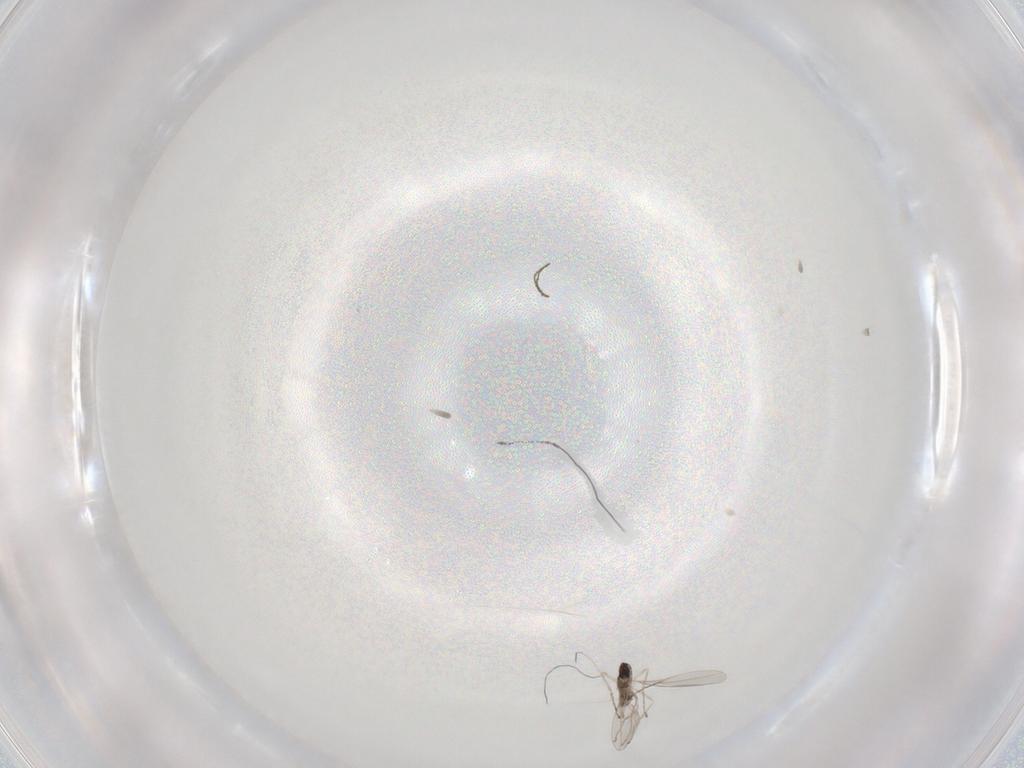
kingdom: Animalia
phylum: Arthropoda
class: Insecta
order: Diptera
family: Cecidomyiidae
